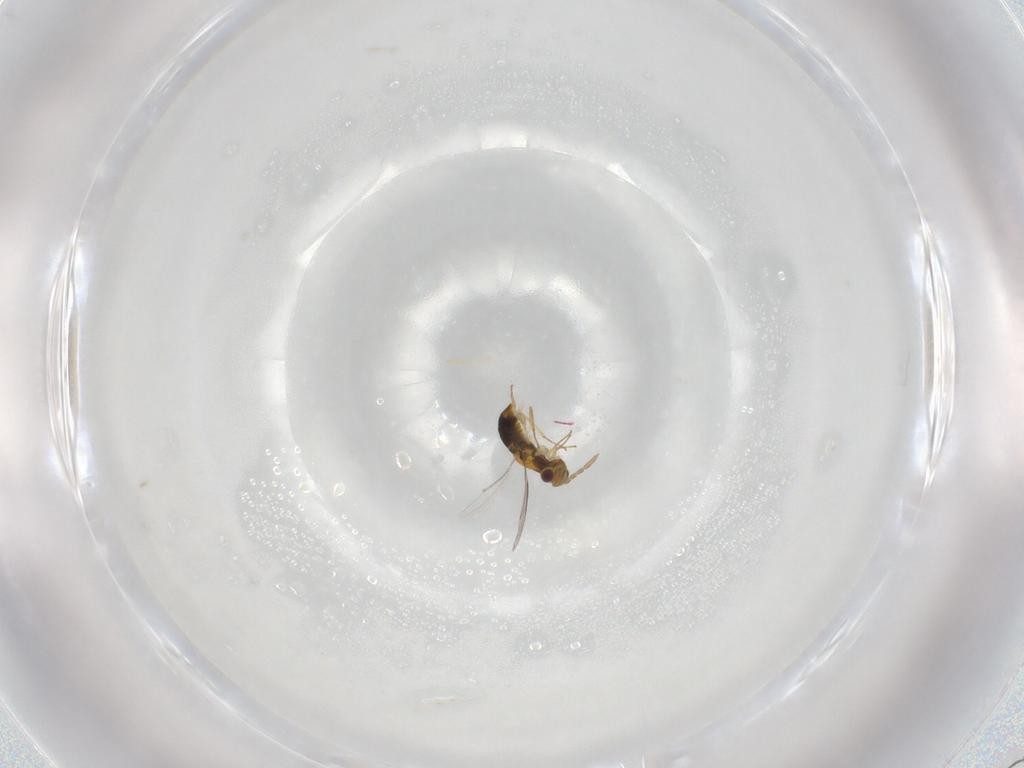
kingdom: Animalia
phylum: Arthropoda
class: Insecta
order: Hymenoptera
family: Aphelinidae
